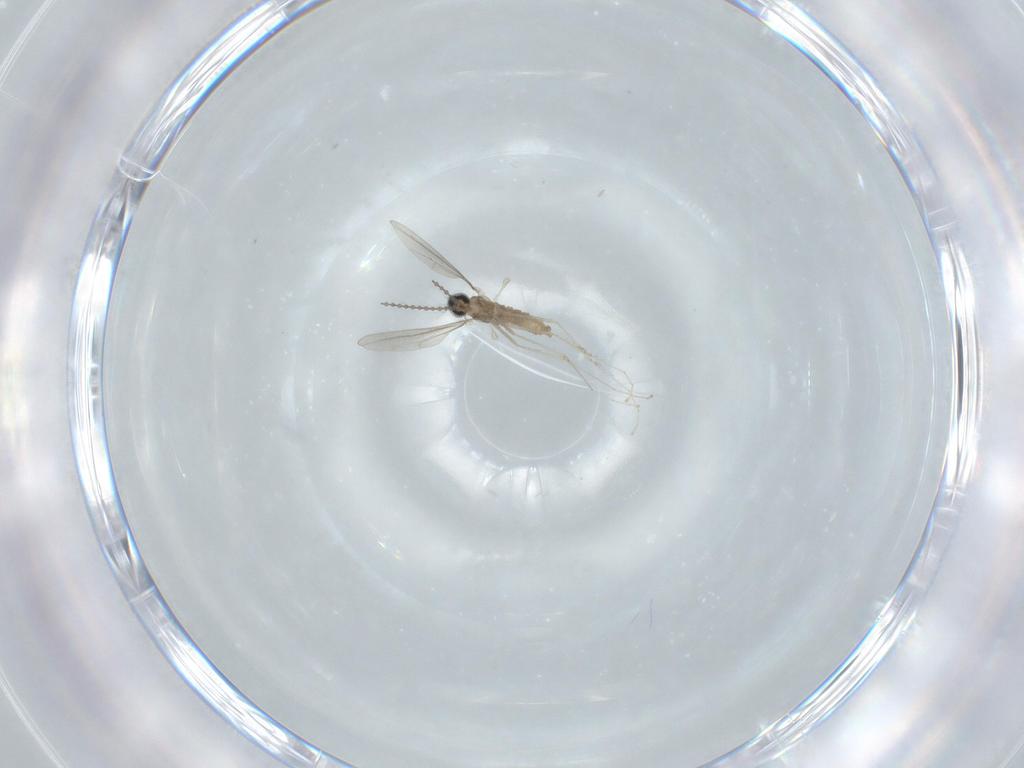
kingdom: Animalia
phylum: Arthropoda
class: Insecta
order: Diptera
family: Cecidomyiidae
